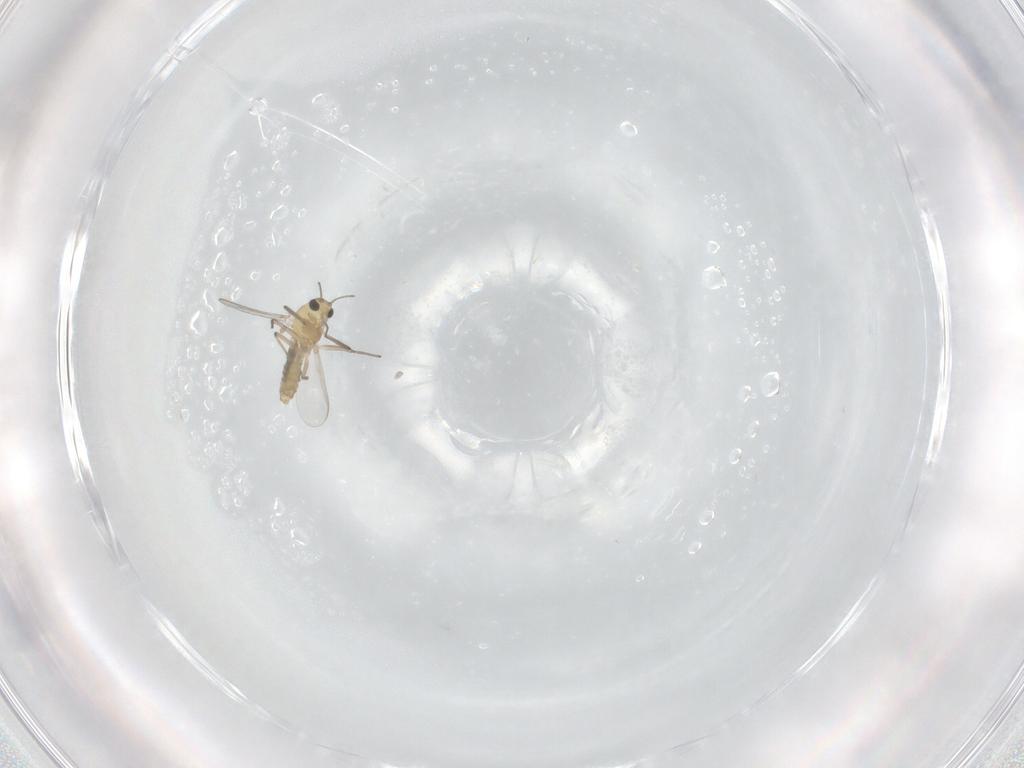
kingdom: Animalia
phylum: Arthropoda
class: Insecta
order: Diptera
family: Chironomidae
